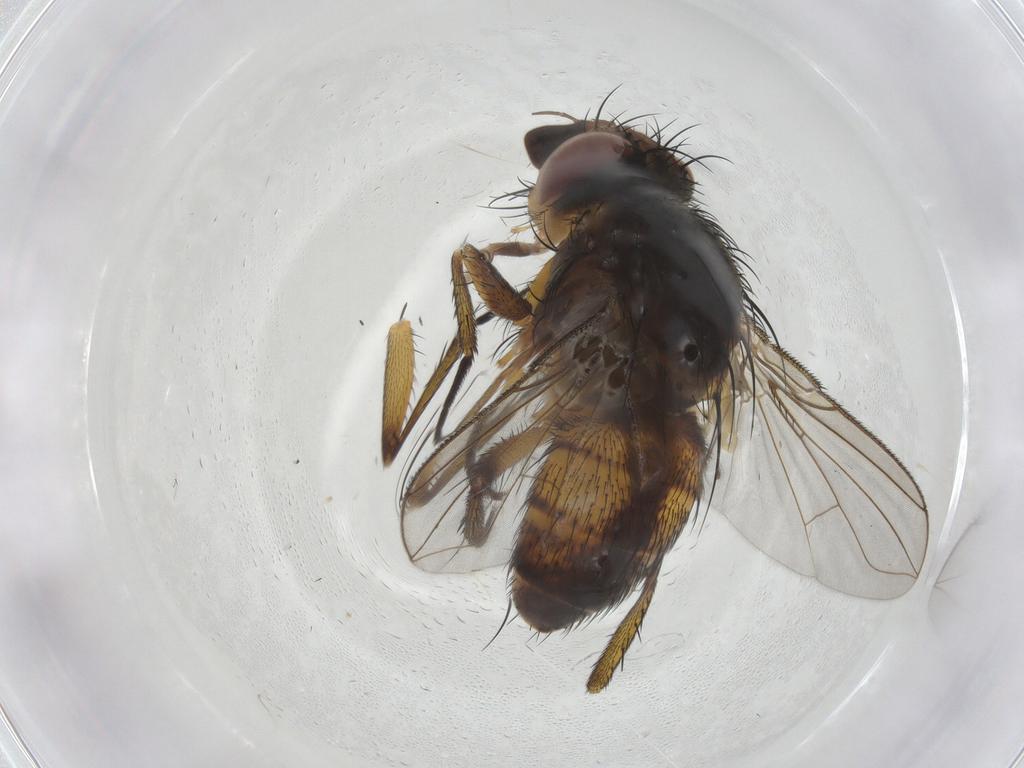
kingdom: Animalia
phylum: Arthropoda
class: Insecta
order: Diptera
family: Tachinidae
